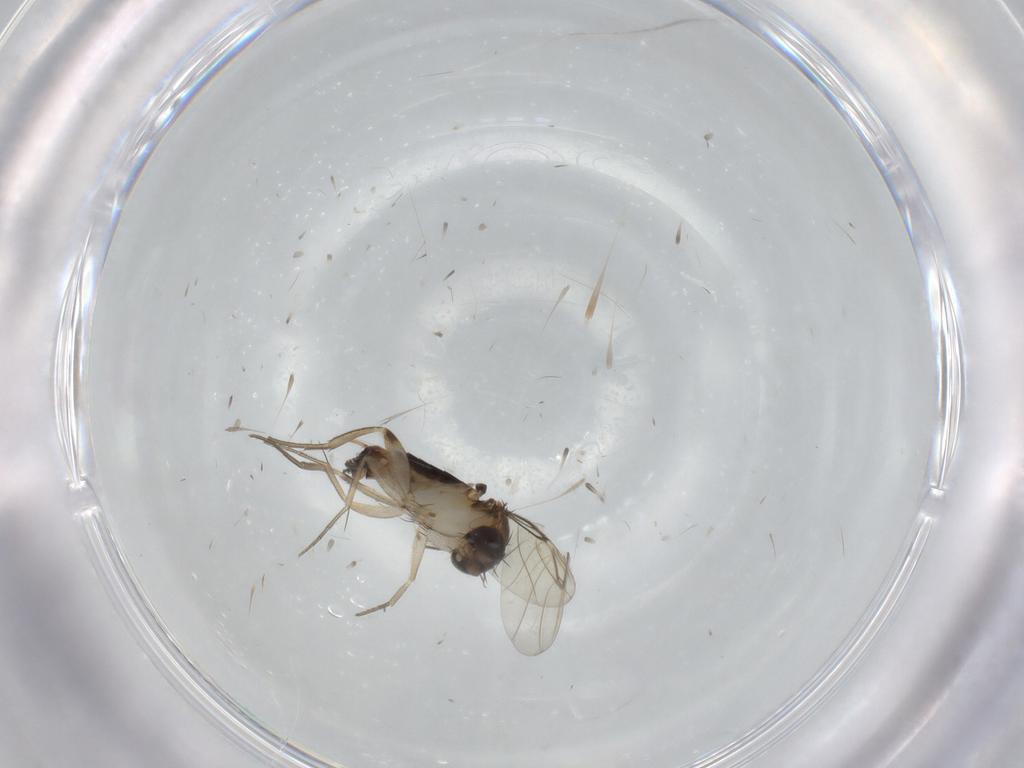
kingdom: Animalia
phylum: Arthropoda
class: Insecta
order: Diptera
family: Phoridae
